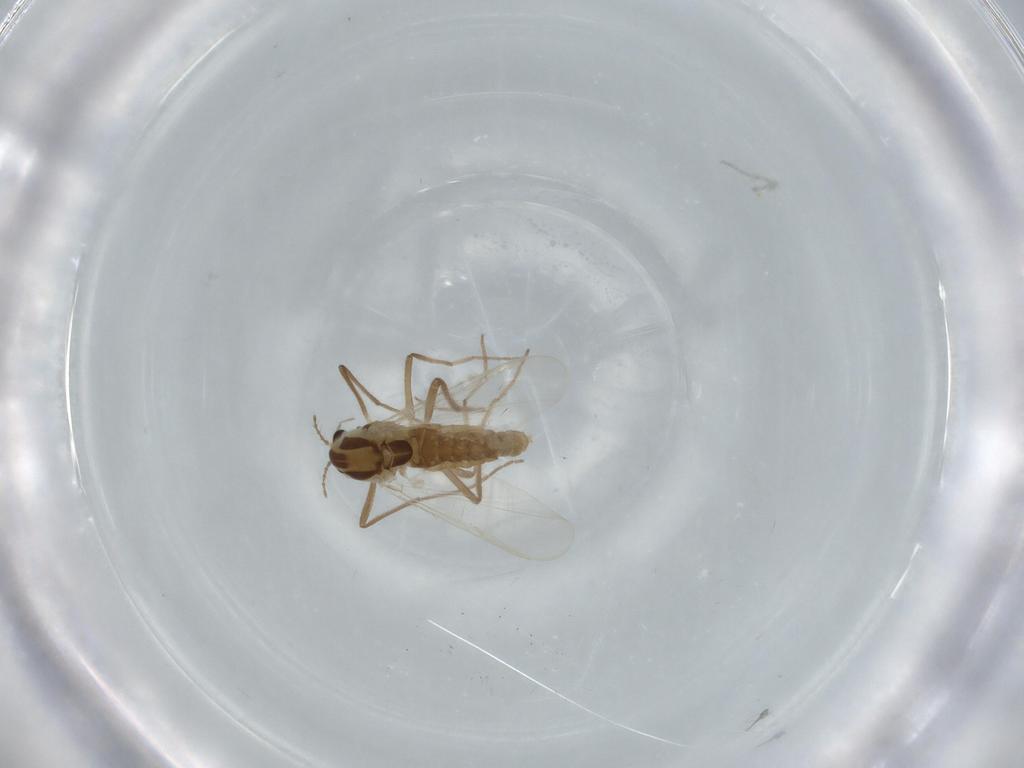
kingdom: Animalia
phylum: Arthropoda
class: Insecta
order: Diptera
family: Chironomidae
